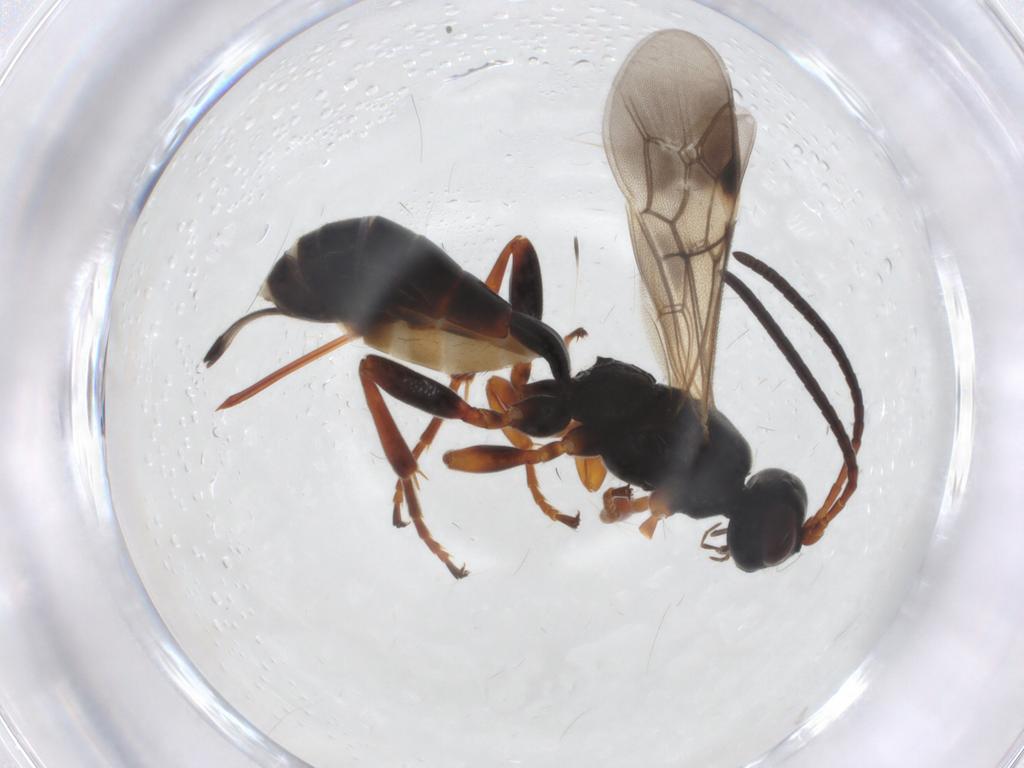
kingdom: Animalia
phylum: Arthropoda
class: Insecta
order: Hymenoptera
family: Ichneumonidae
